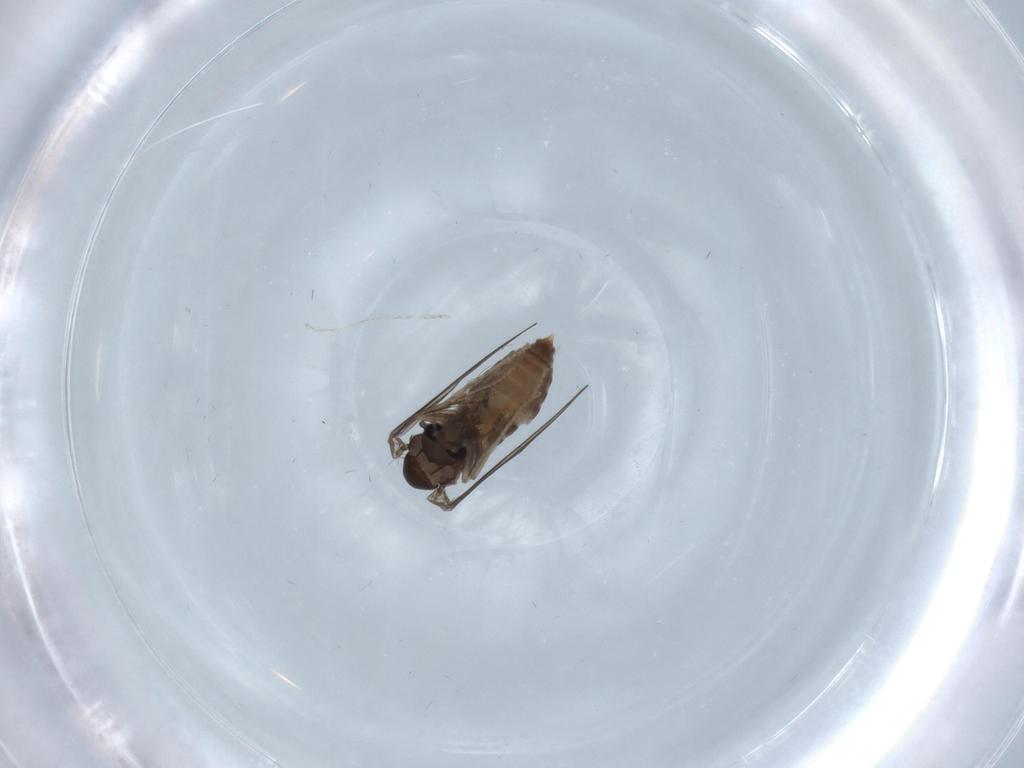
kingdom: Animalia
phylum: Arthropoda
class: Insecta
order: Diptera
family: Psychodidae
